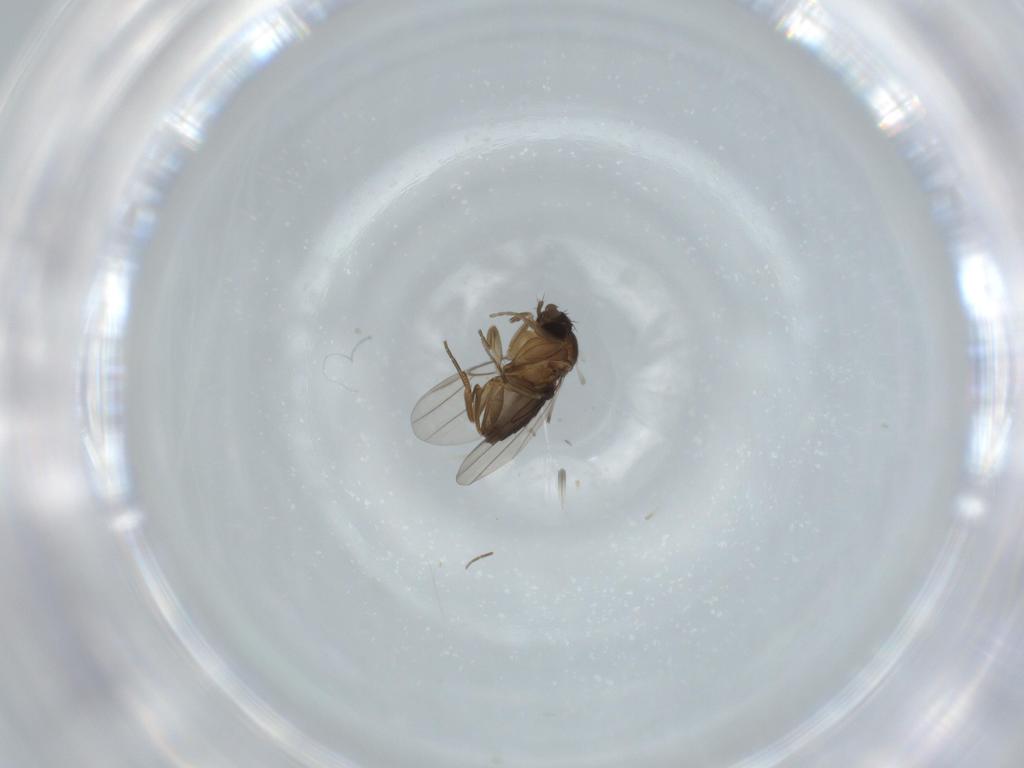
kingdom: Animalia
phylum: Arthropoda
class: Insecta
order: Diptera
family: Phoridae
